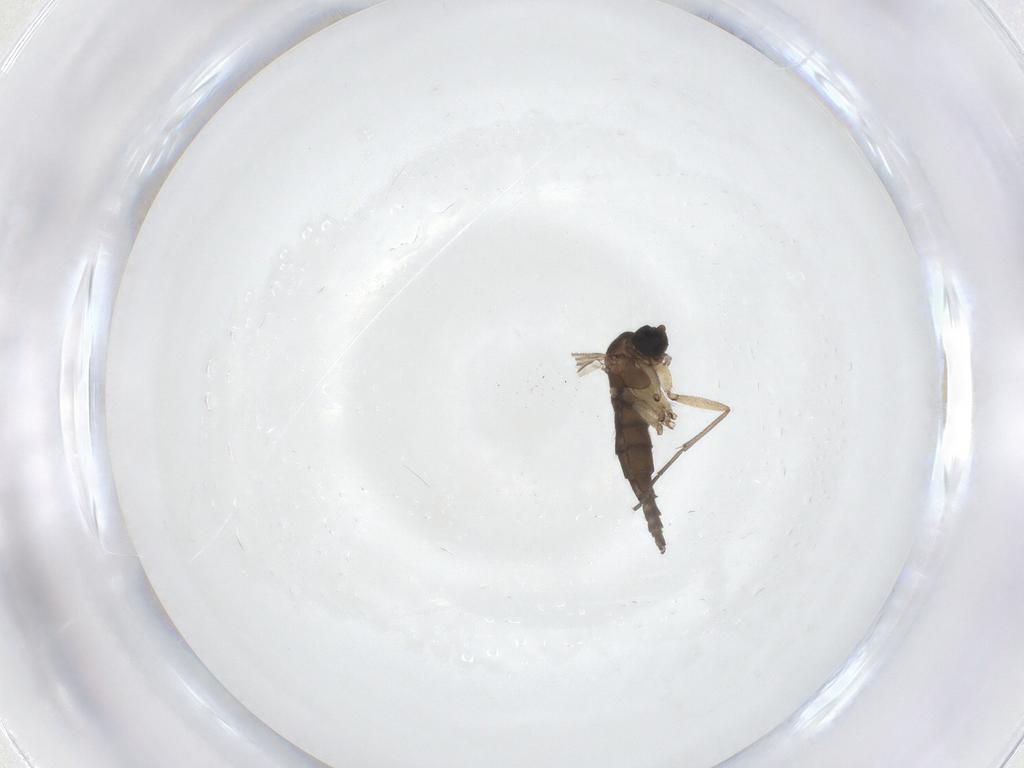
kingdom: Animalia
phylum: Arthropoda
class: Insecta
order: Diptera
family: Sciaridae
